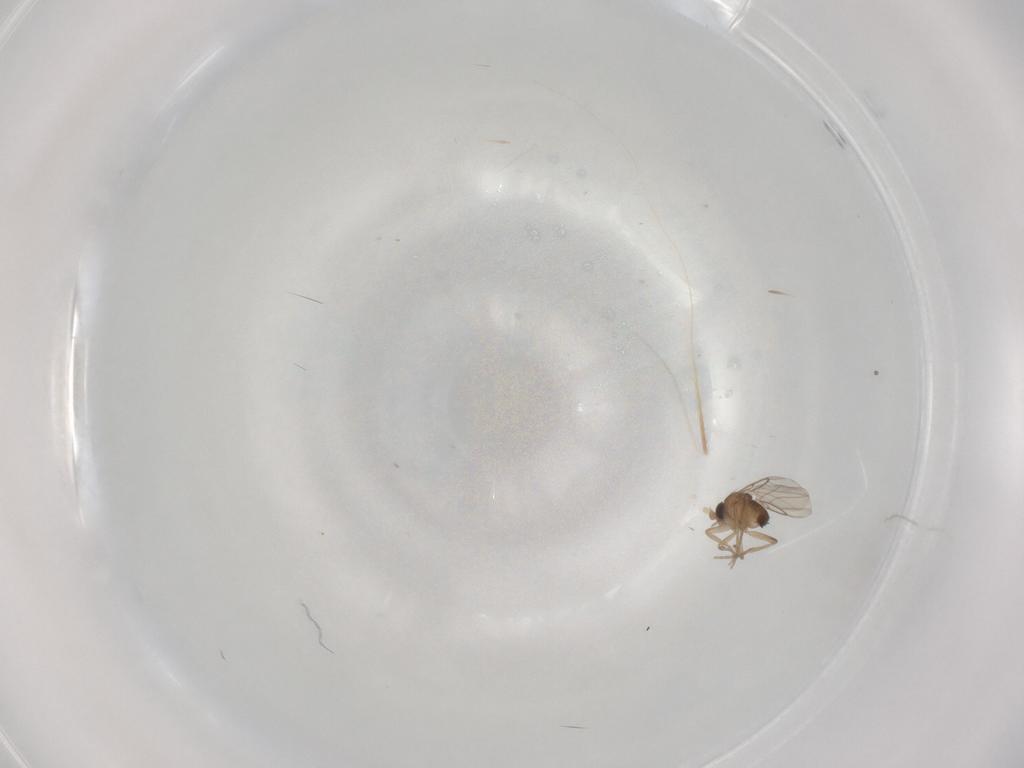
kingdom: Animalia
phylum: Arthropoda
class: Insecta
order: Diptera
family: Phoridae
